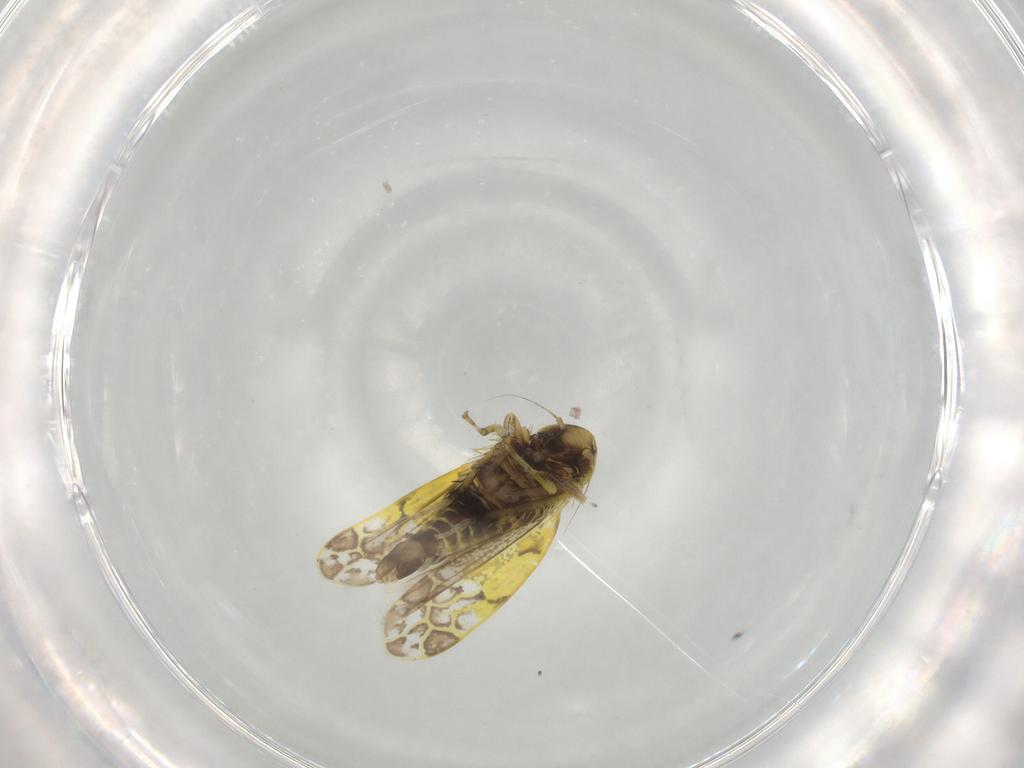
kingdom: Animalia
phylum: Arthropoda
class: Insecta
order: Hemiptera
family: Cicadellidae
